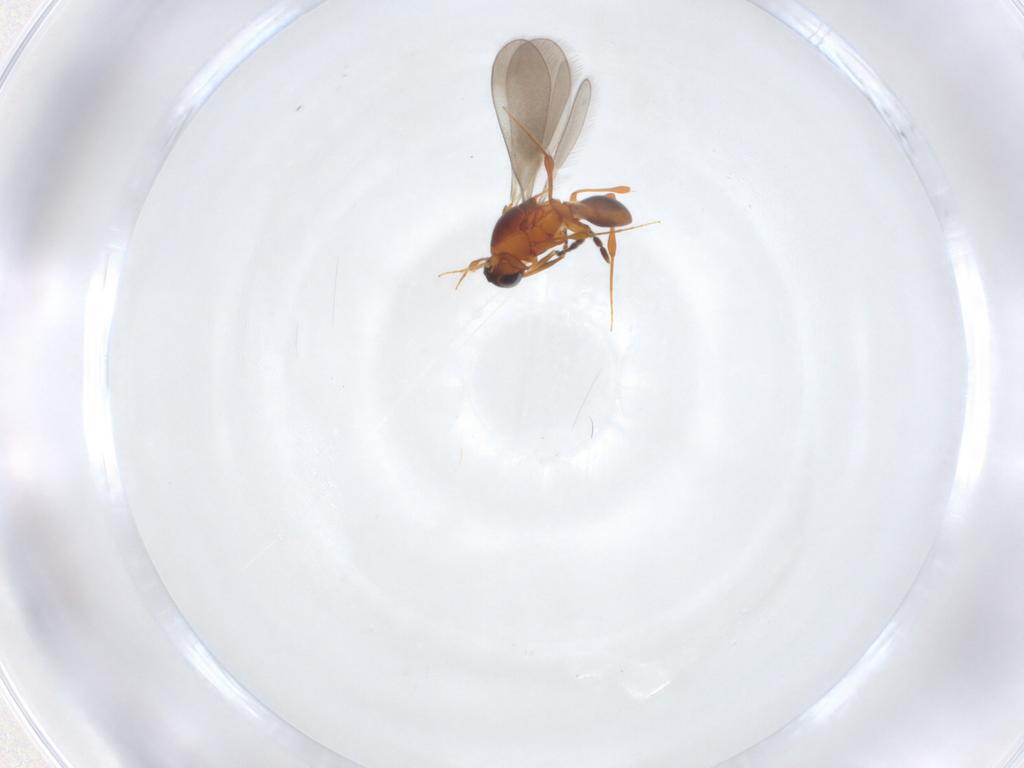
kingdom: Animalia
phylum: Arthropoda
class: Insecta
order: Hymenoptera
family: Platygastridae
